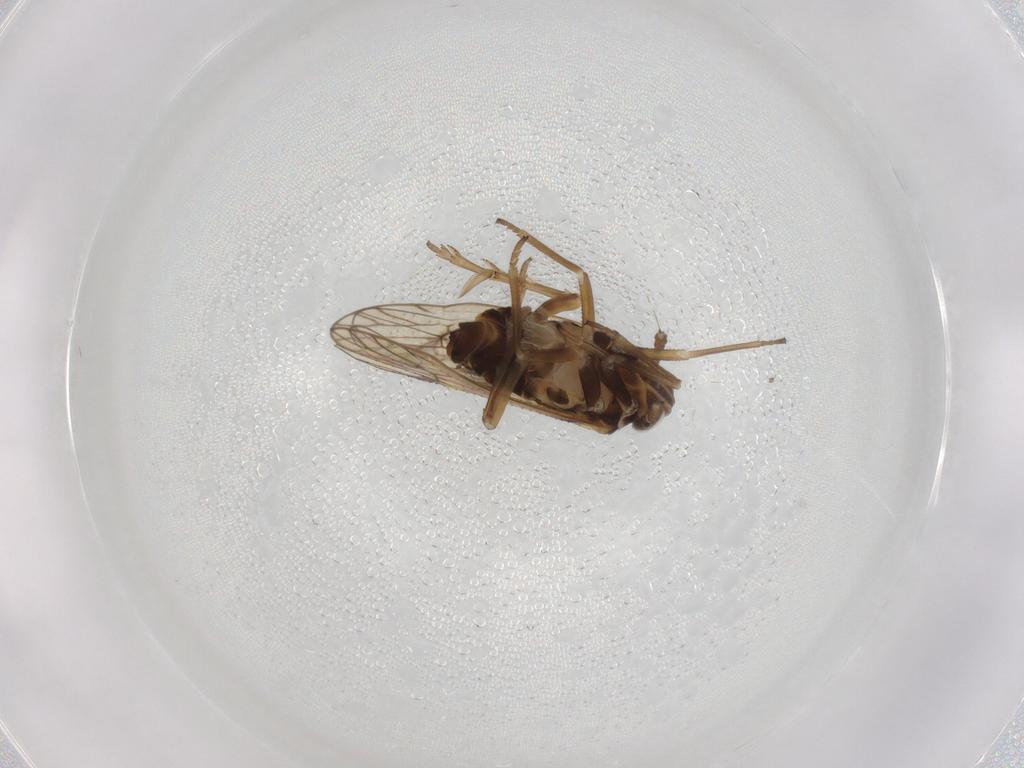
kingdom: Animalia
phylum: Arthropoda
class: Insecta
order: Hemiptera
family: Delphacidae
